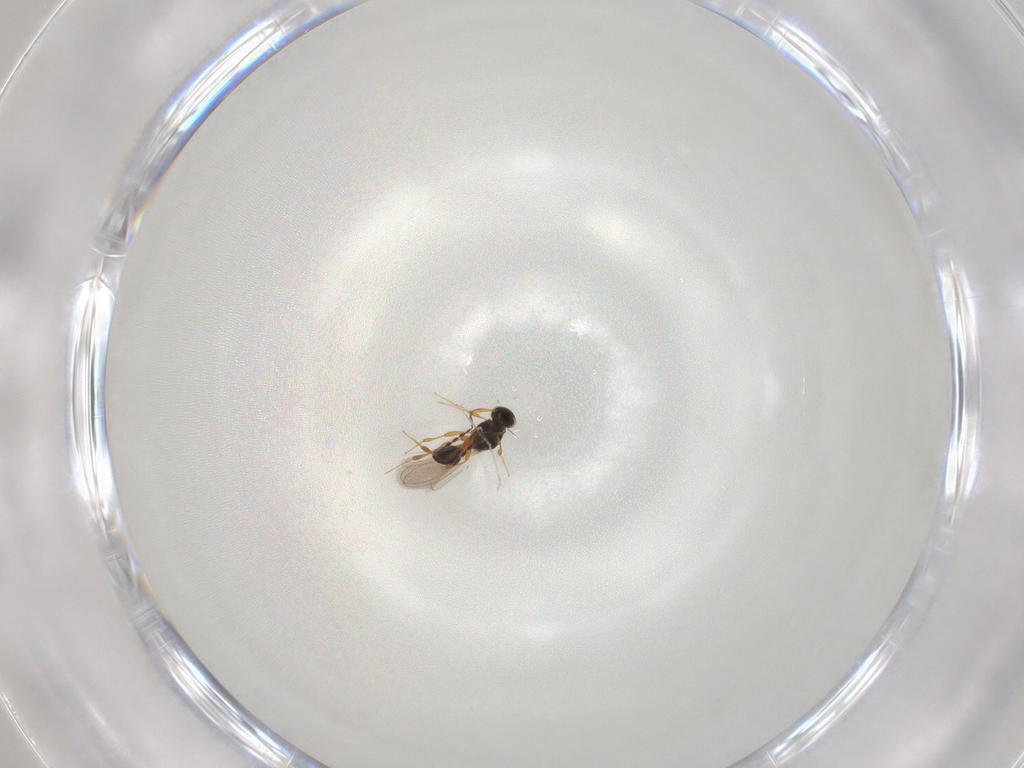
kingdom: Animalia
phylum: Arthropoda
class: Insecta
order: Hymenoptera
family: Platygastridae
